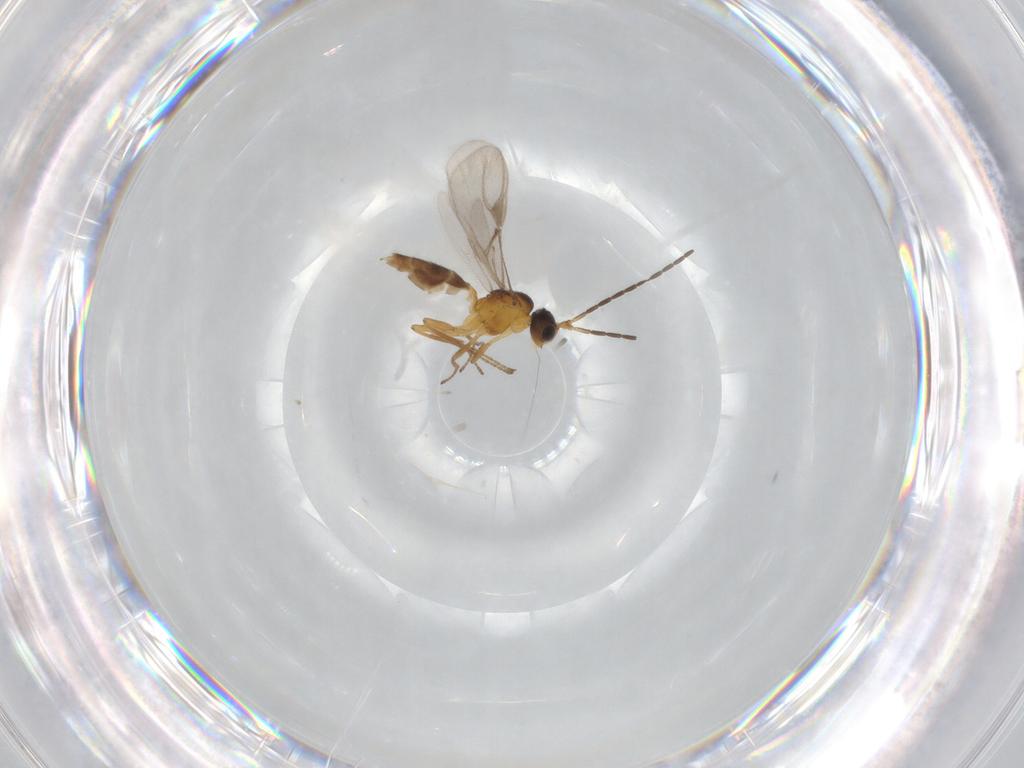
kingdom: Animalia
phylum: Arthropoda
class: Insecta
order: Hymenoptera
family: Braconidae
